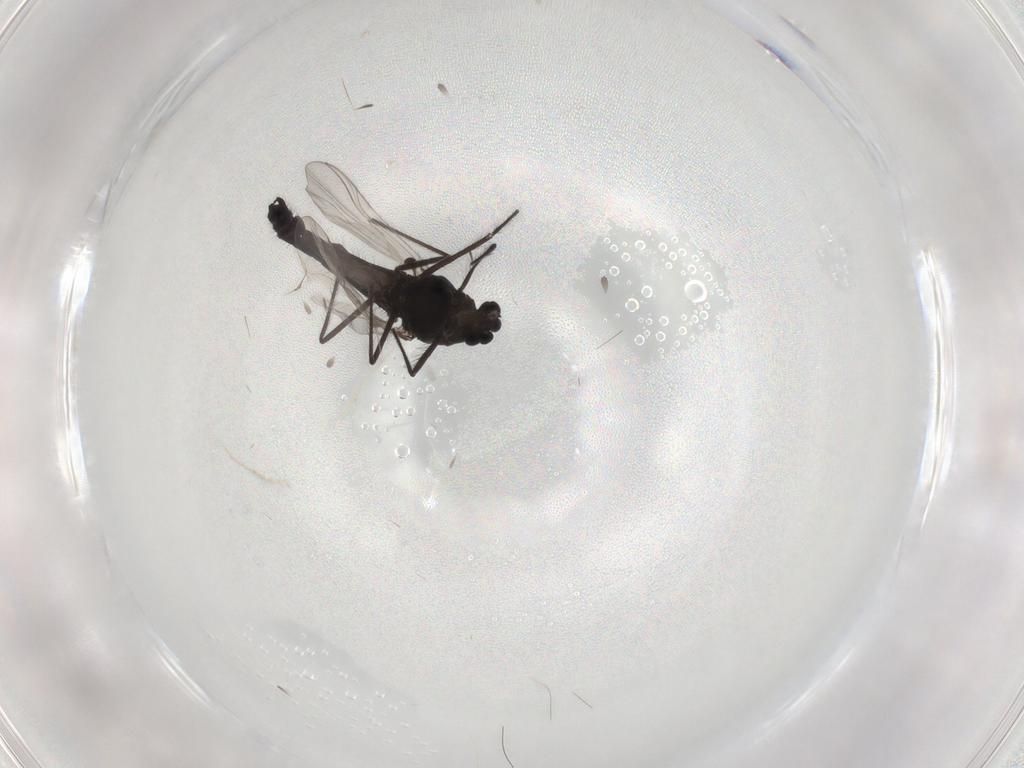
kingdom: Animalia
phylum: Arthropoda
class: Insecta
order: Diptera
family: Chironomidae
